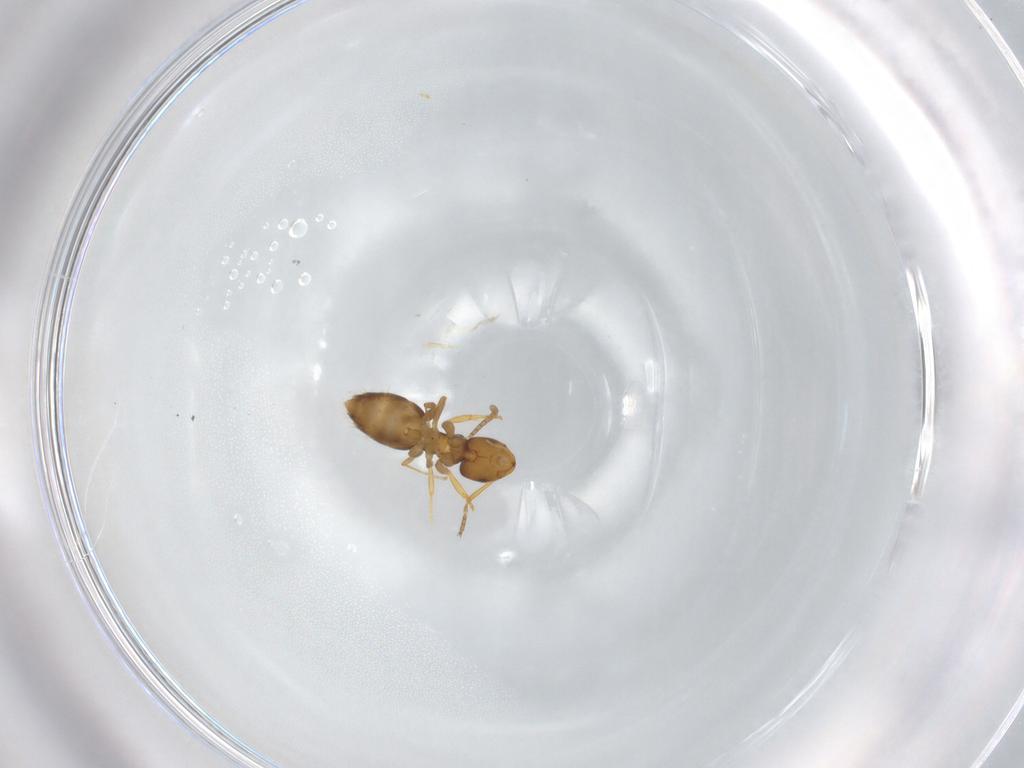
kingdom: Animalia
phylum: Arthropoda
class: Insecta
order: Hymenoptera
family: Formicidae
